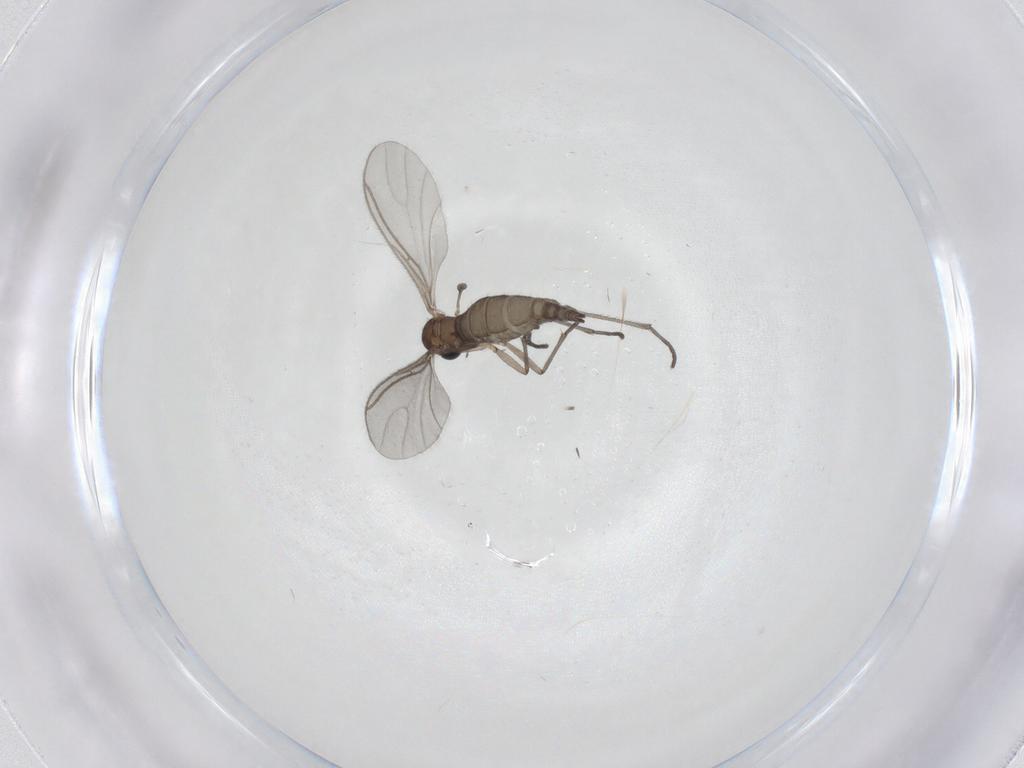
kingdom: Animalia
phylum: Arthropoda
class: Insecta
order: Diptera
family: Sciaridae
